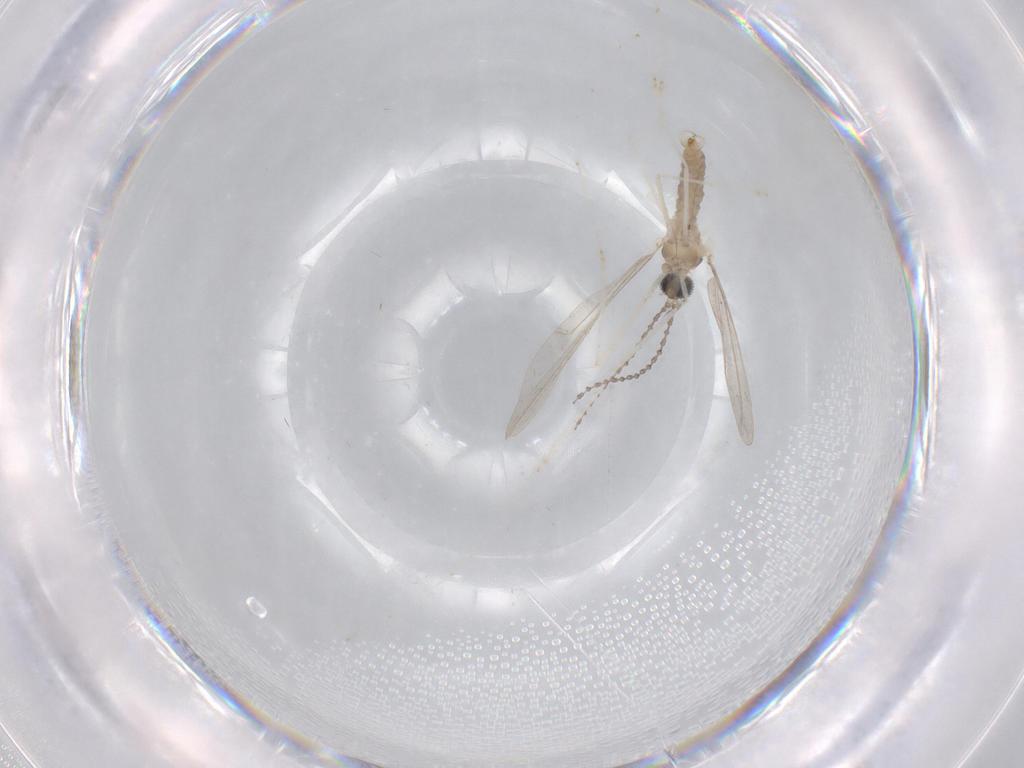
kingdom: Animalia
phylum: Arthropoda
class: Insecta
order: Diptera
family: Cecidomyiidae
